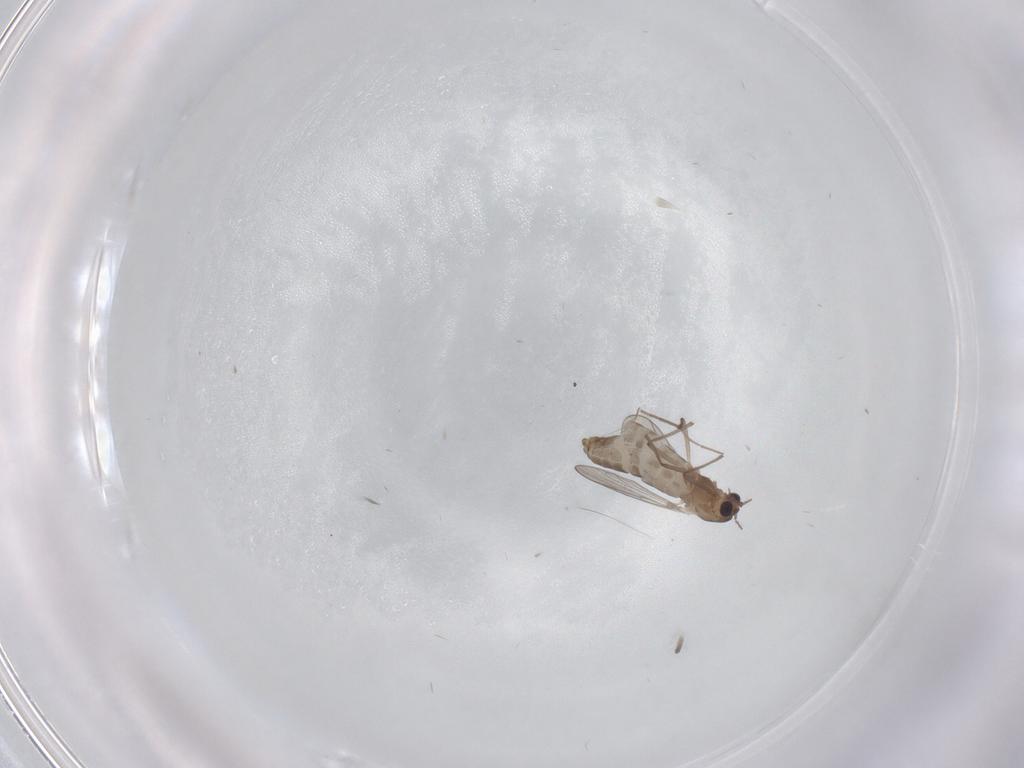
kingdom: Animalia
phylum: Arthropoda
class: Insecta
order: Diptera
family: Chironomidae
